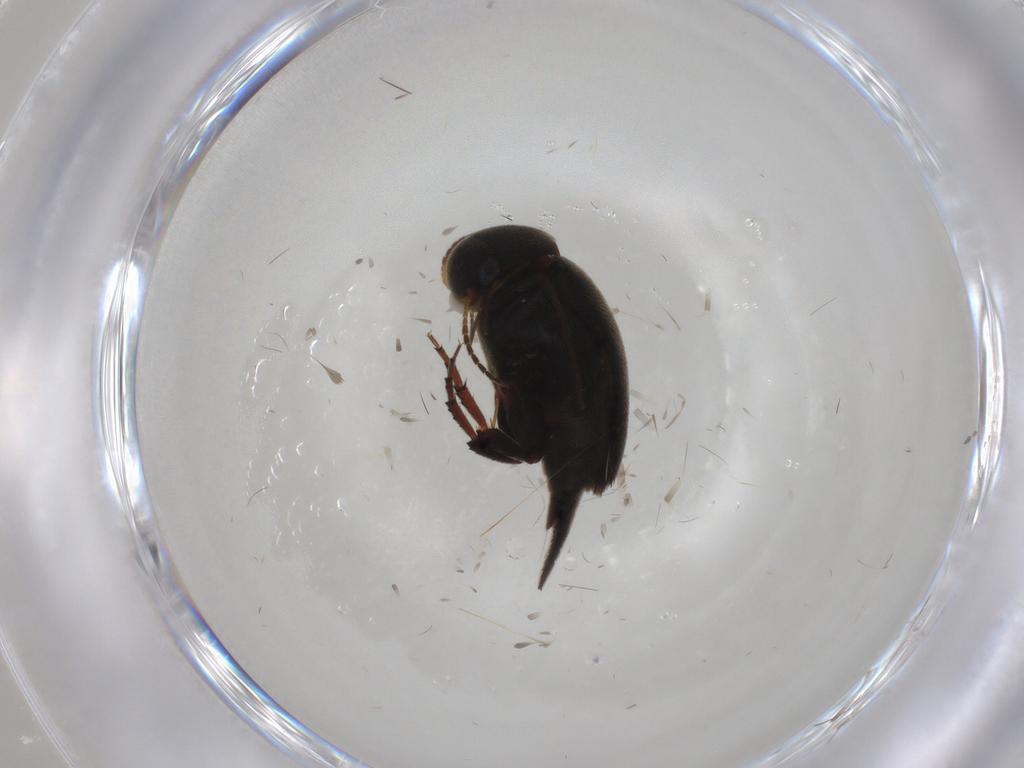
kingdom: Animalia
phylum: Arthropoda
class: Insecta
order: Coleoptera
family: Mordellidae
